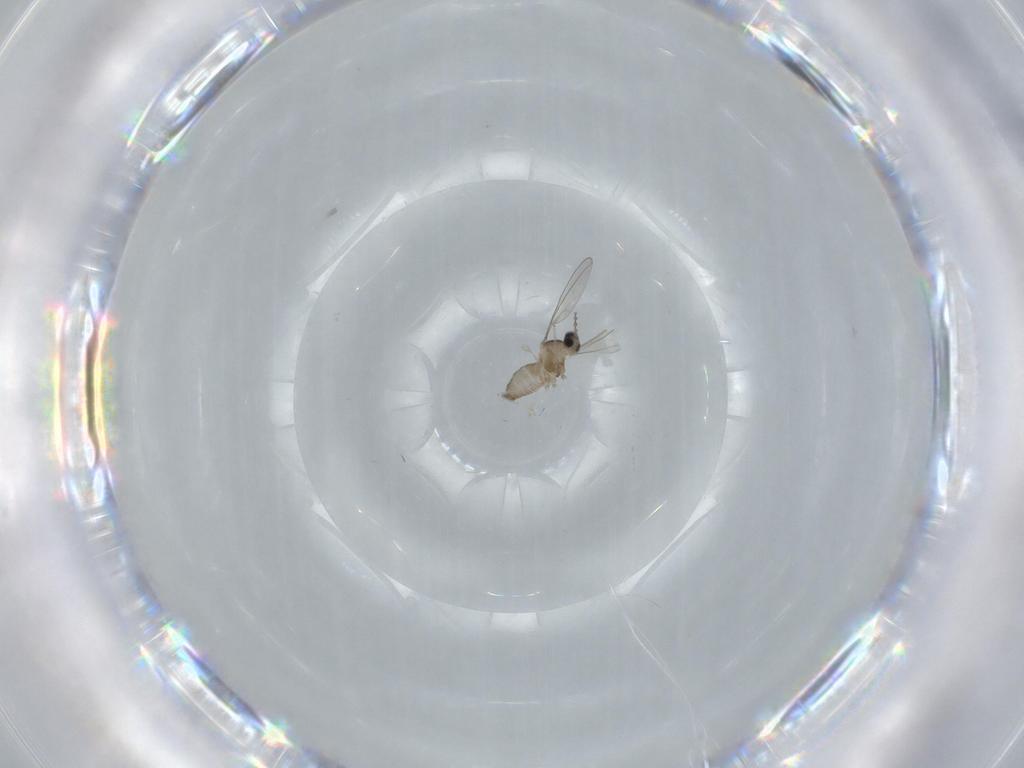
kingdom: Animalia
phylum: Arthropoda
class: Insecta
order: Diptera
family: Cecidomyiidae
